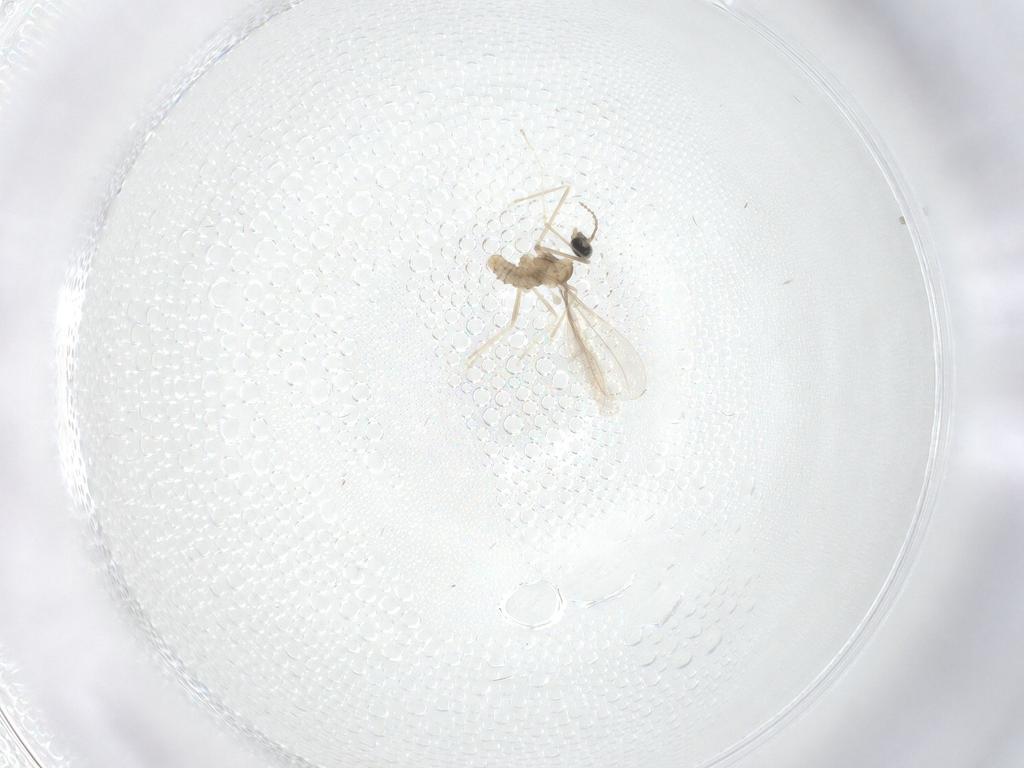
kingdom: Animalia
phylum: Arthropoda
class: Insecta
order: Diptera
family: Cecidomyiidae
